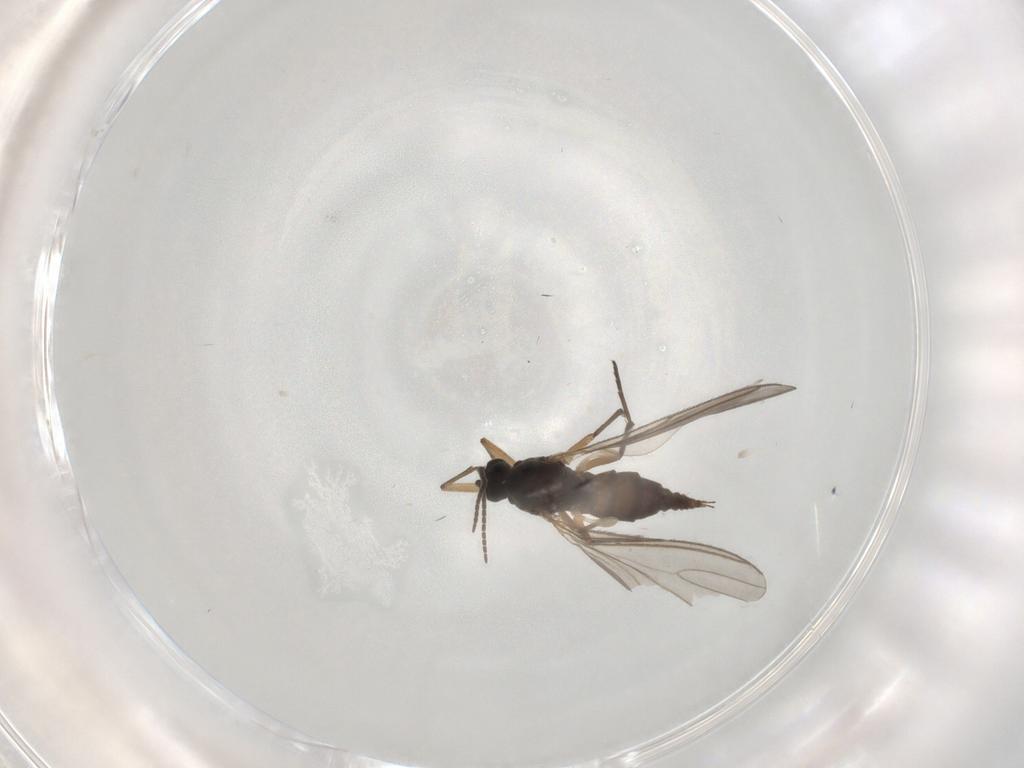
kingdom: Animalia
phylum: Arthropoda
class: Insecta
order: Diptera
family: Sciaridae
